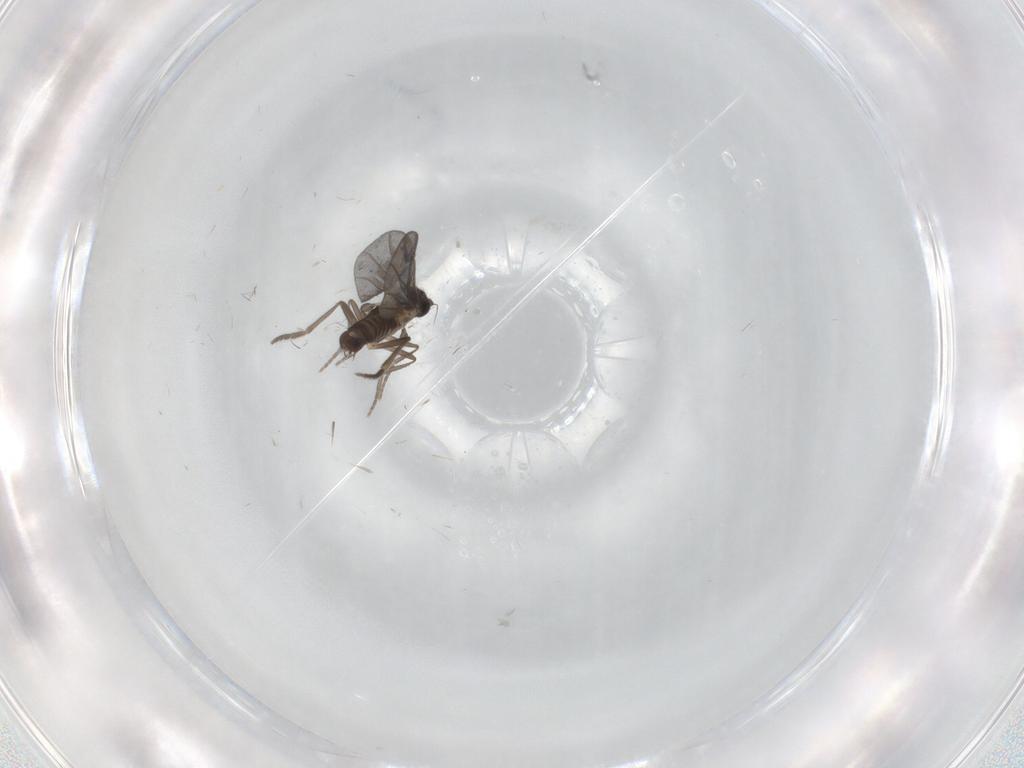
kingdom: Animalia
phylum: Arthropoda
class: Insecta
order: Diptera
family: Phoridae
